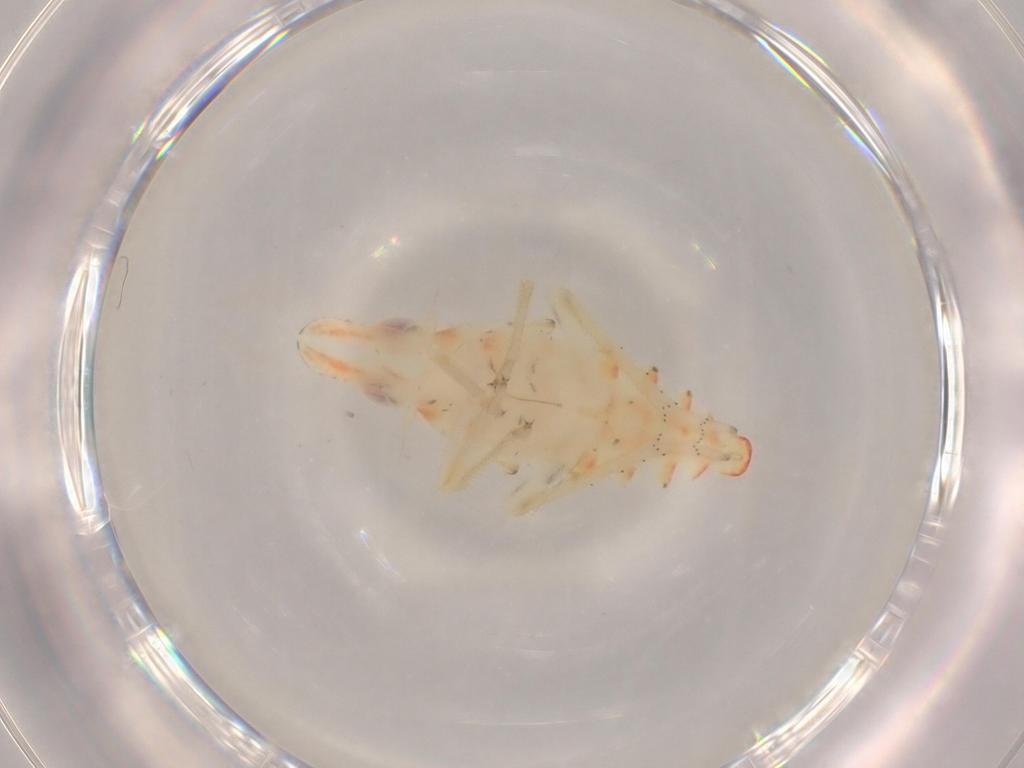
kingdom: Animalia
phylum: Arthropoda
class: Insecta
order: Hemiptera
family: Tropiduchidae
